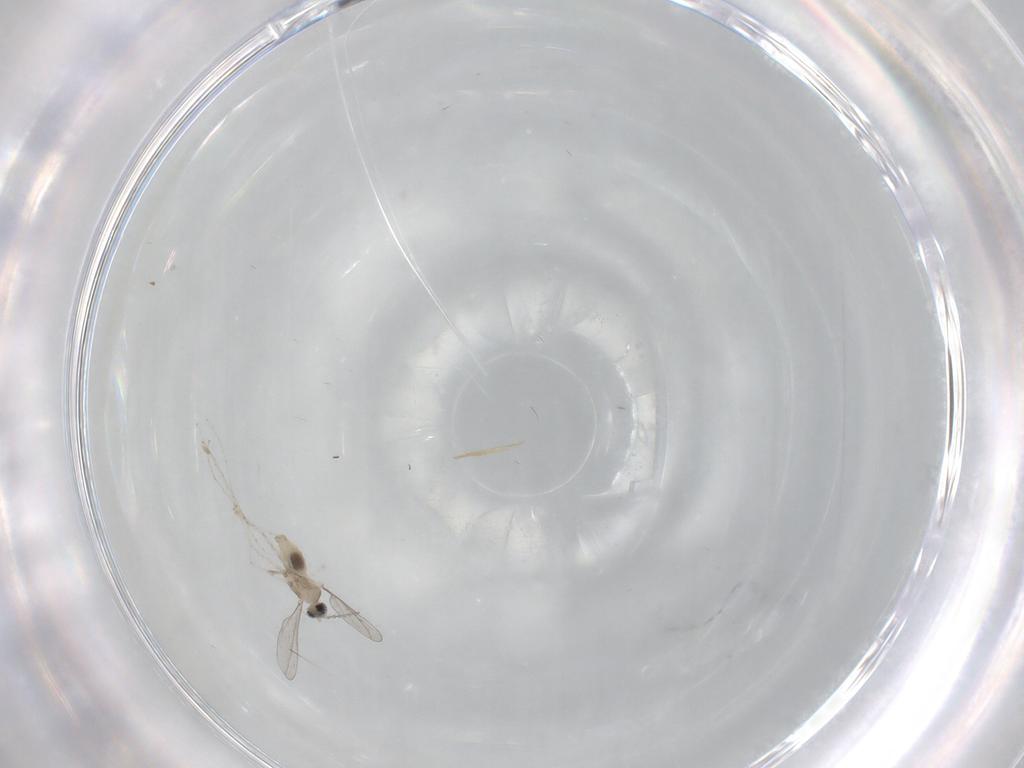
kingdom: Animalia
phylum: Arthropoda
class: Insecta
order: Diptera
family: Cecidomyiidae
